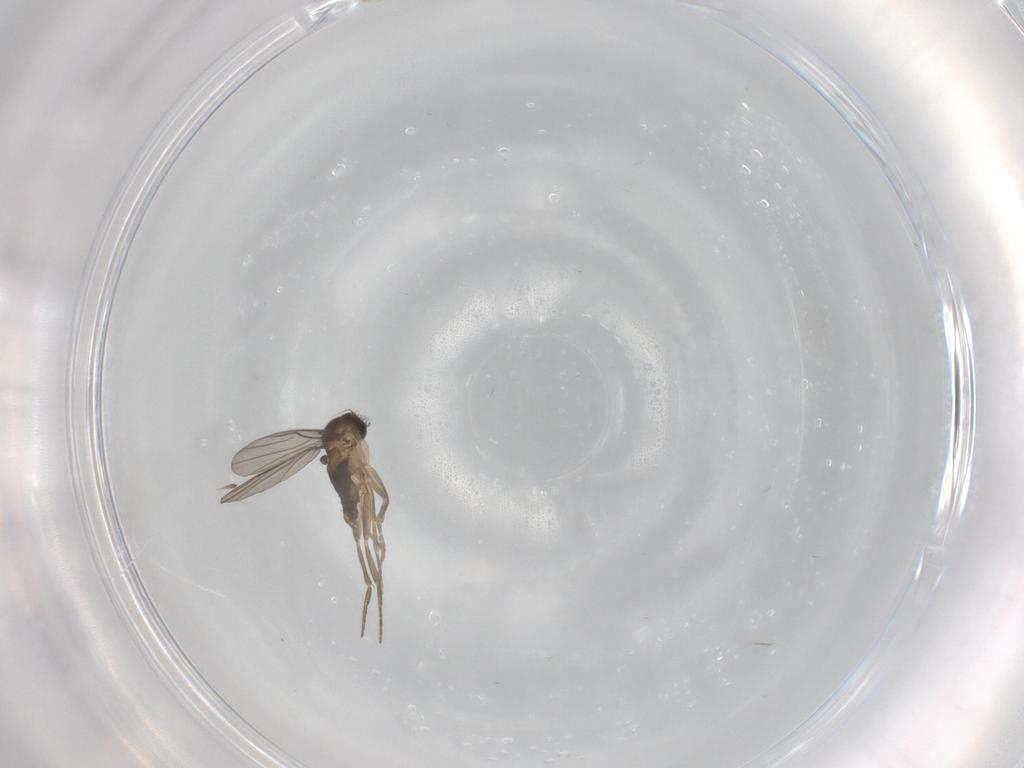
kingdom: Animalia
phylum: Arthropoda
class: Insecta
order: Diptera
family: Phoridae
